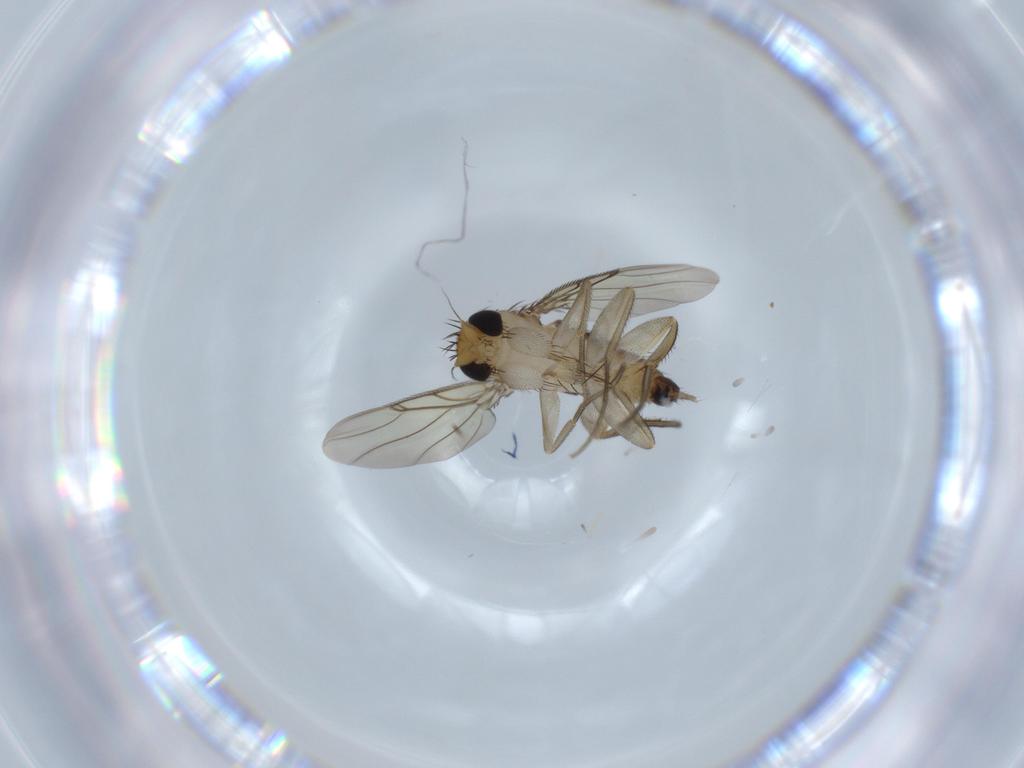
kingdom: Animalia
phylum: Arthropoda
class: Insecta
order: Diptera
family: Phoridae
